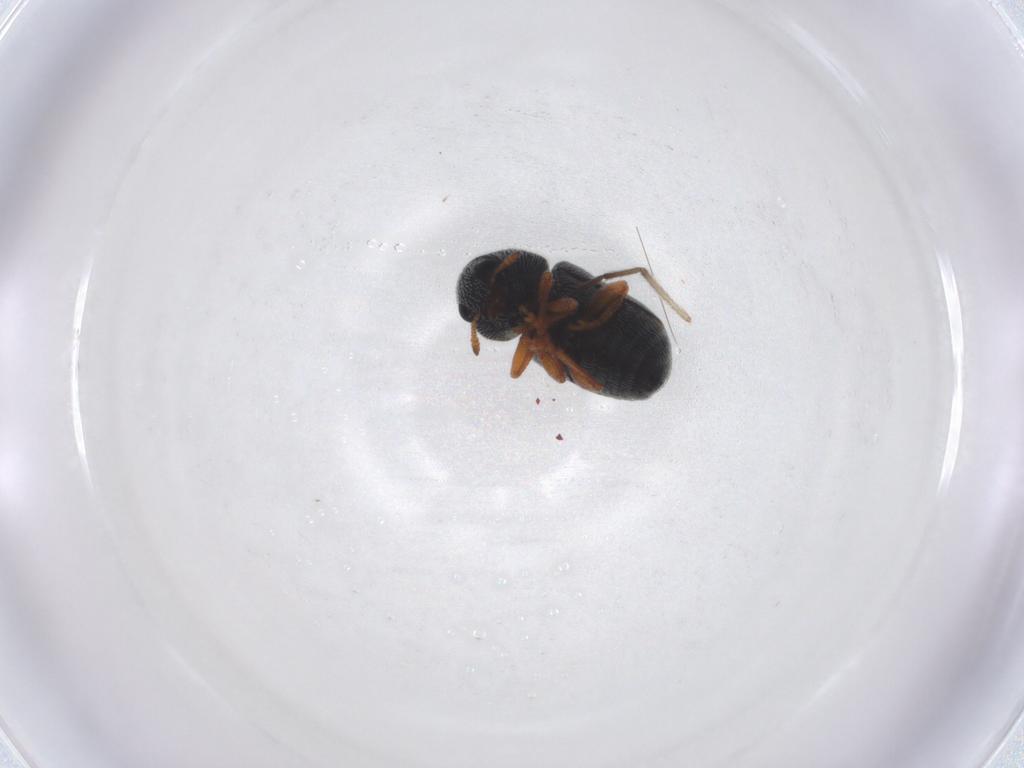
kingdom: Animalia
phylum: Arthropoda
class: Insecta
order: Coleoptera
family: Anthribidae
